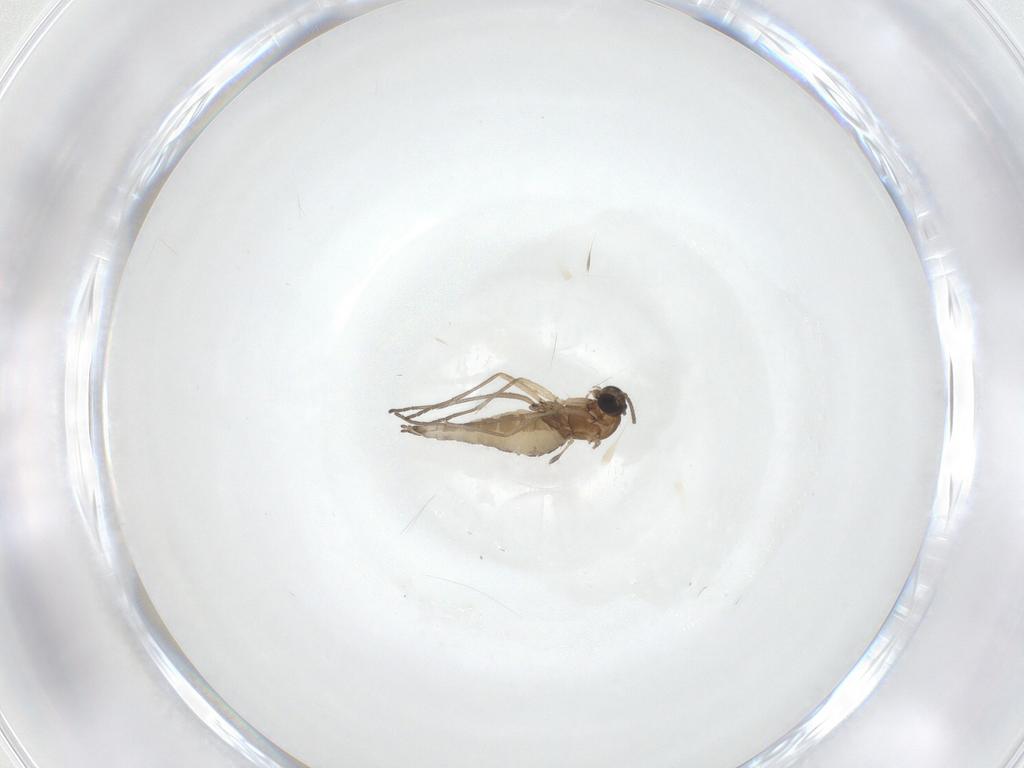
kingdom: Animalia
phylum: Arthropoda
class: Insecta
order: Diptera
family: Sciaridae
